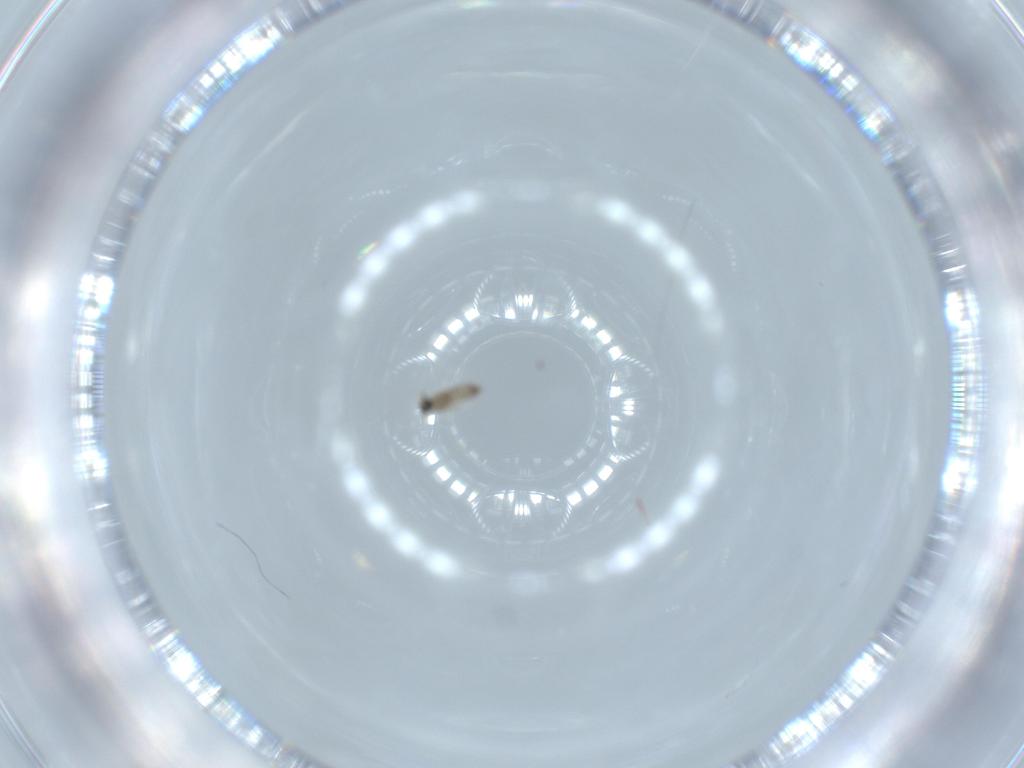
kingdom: Animalia
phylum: Arthropoda
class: Insecta
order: Diptera
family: Chironomidae
